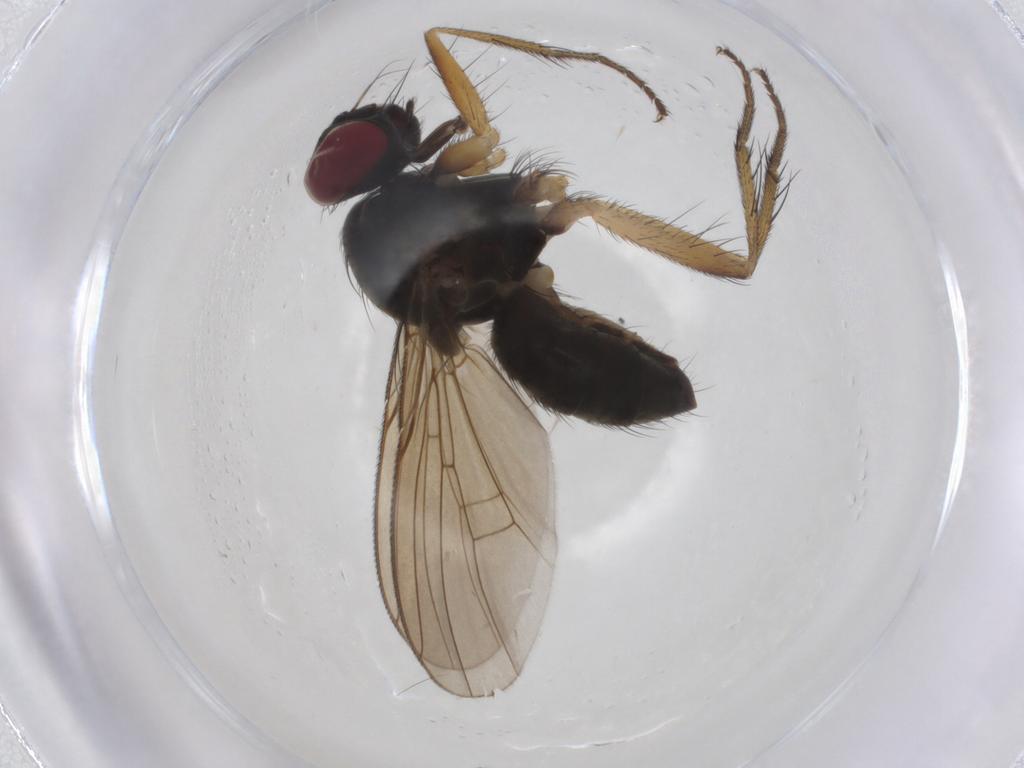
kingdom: Animalia
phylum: Arthropoda
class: Insecta
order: Diptera
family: Muscidae
